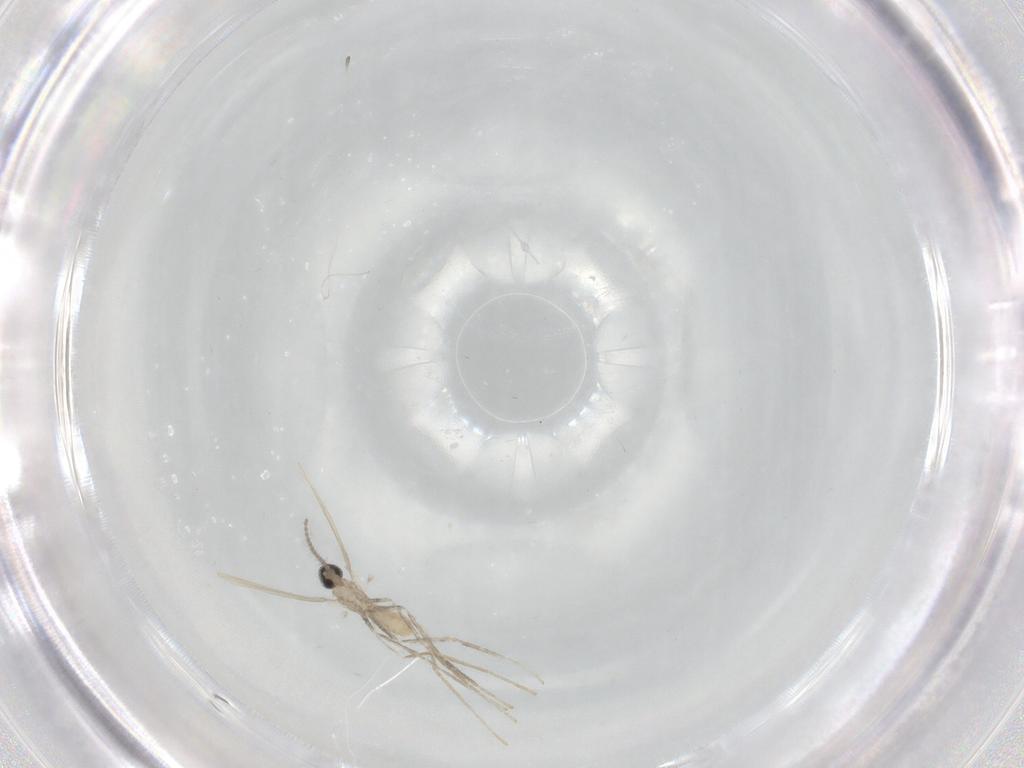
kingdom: Animalia
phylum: Arthropoda
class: Insecta
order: Diptera
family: Cecidomyiidae
